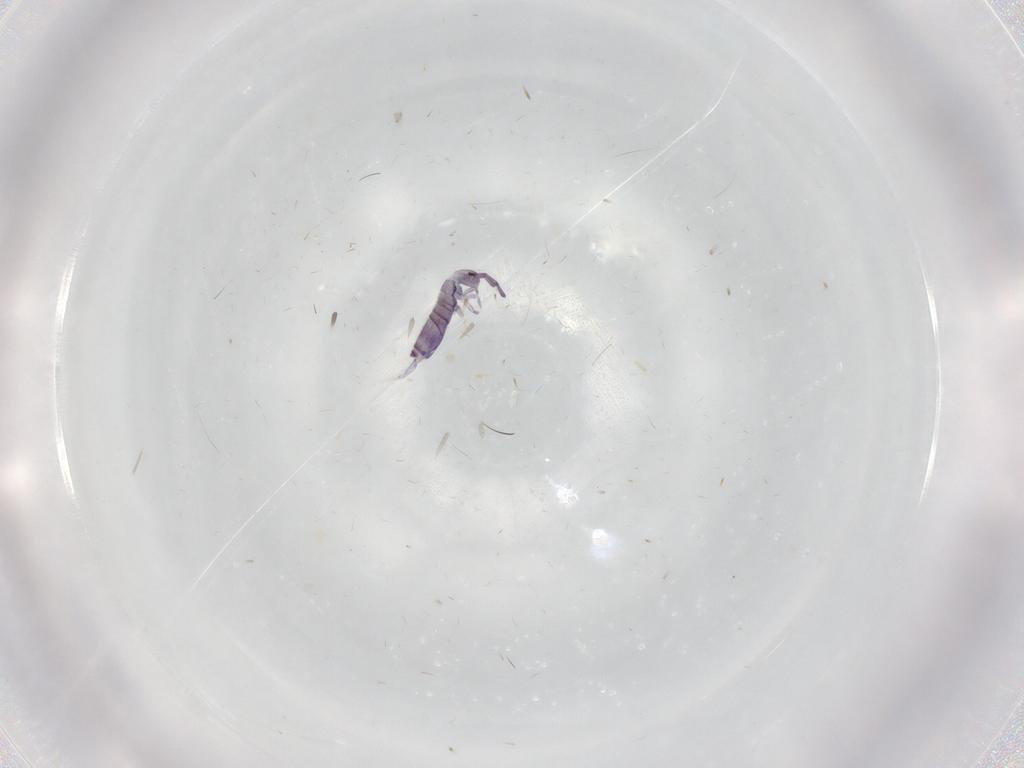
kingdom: Animalia
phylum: Arthropoda
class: Collembola
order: Entomobryomorpha
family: Entomobryidae
